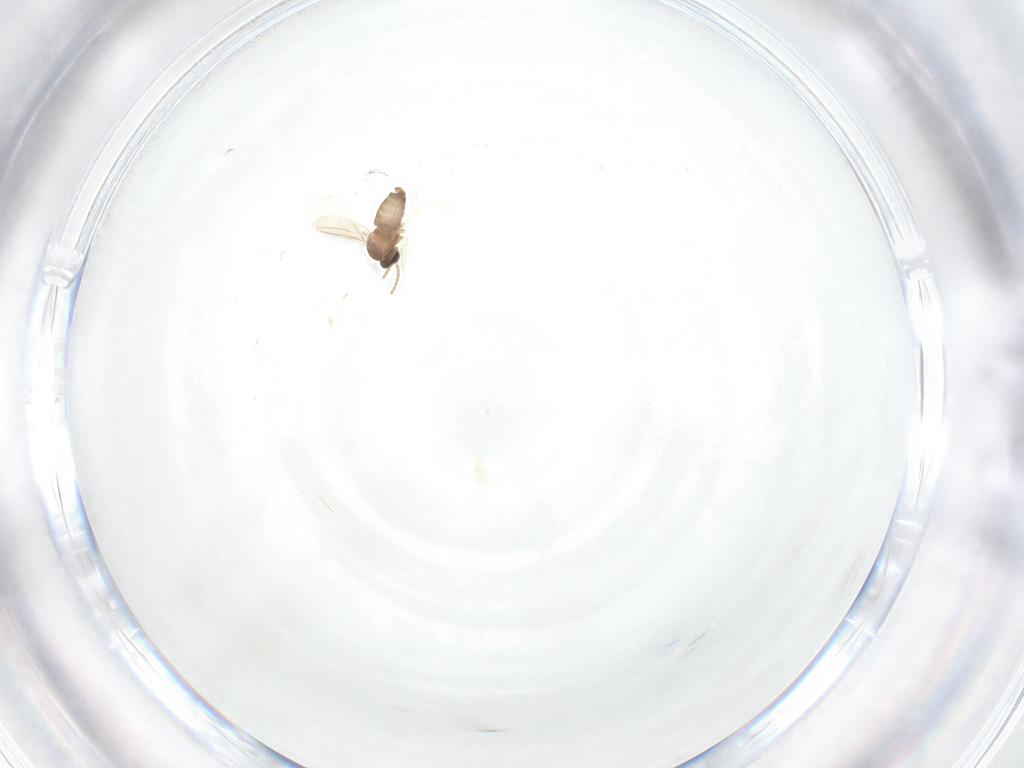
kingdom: Animalia
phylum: Arthropoda
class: Insecta
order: Diptera
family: Cecidomyiidae
